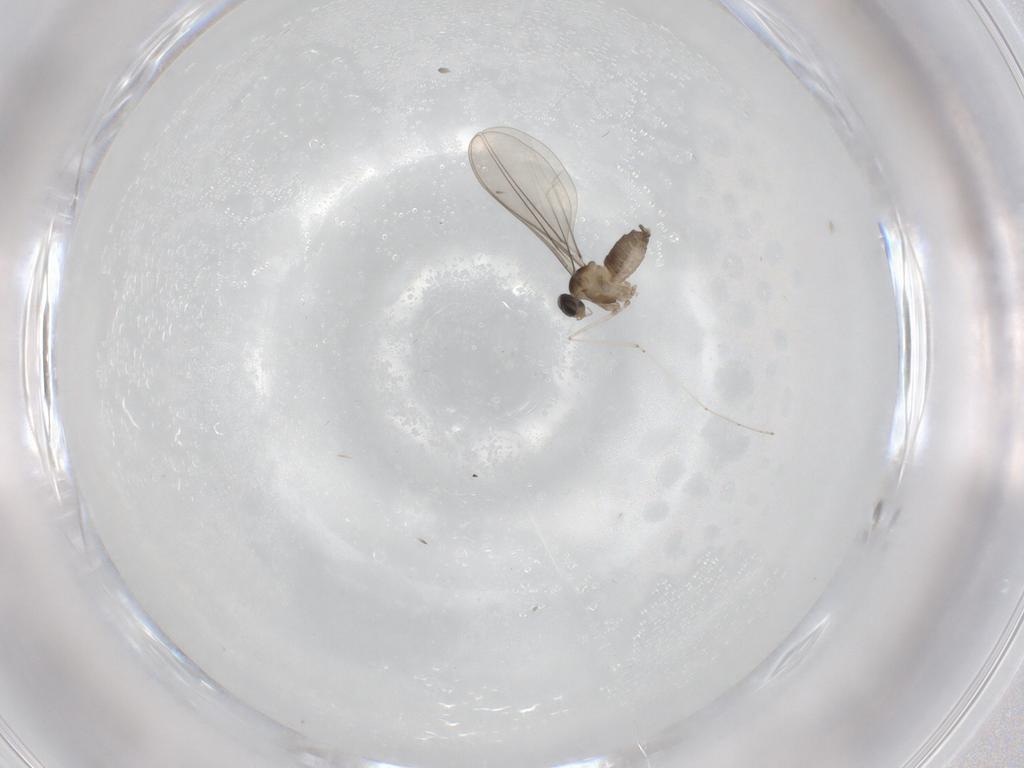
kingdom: Animalia
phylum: Arthropoda
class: Insecta
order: Diptera
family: Cecidomyiidae
